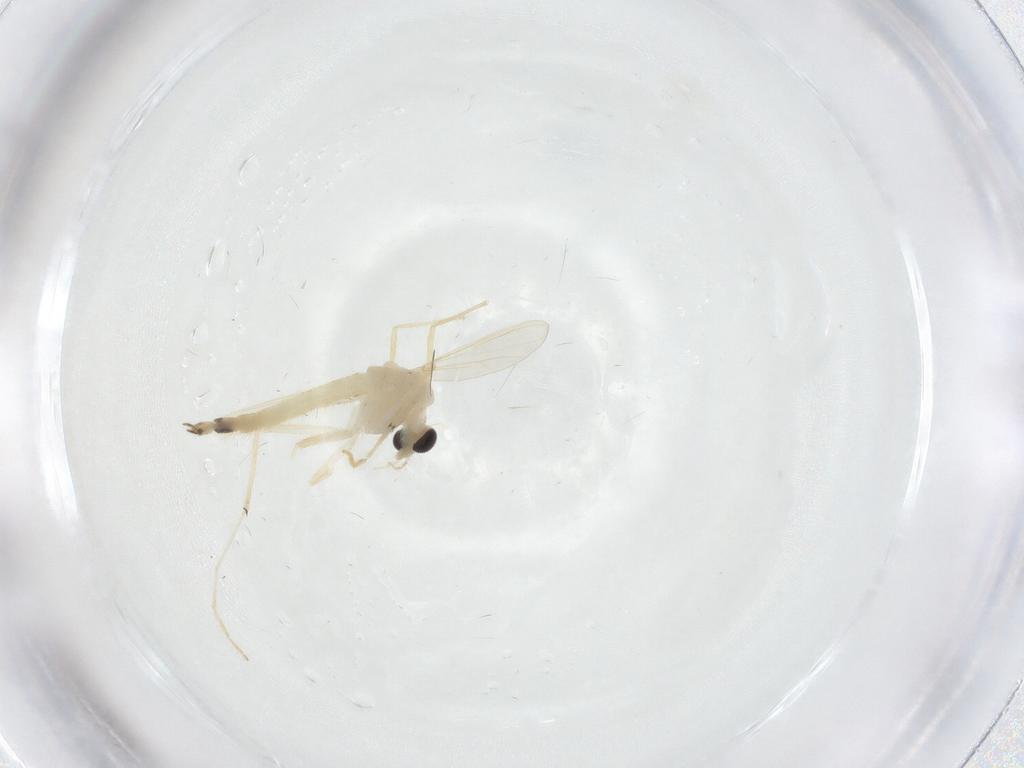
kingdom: Animalia
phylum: Arthropoda
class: Insecta
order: Diptera
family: Chironomidae
